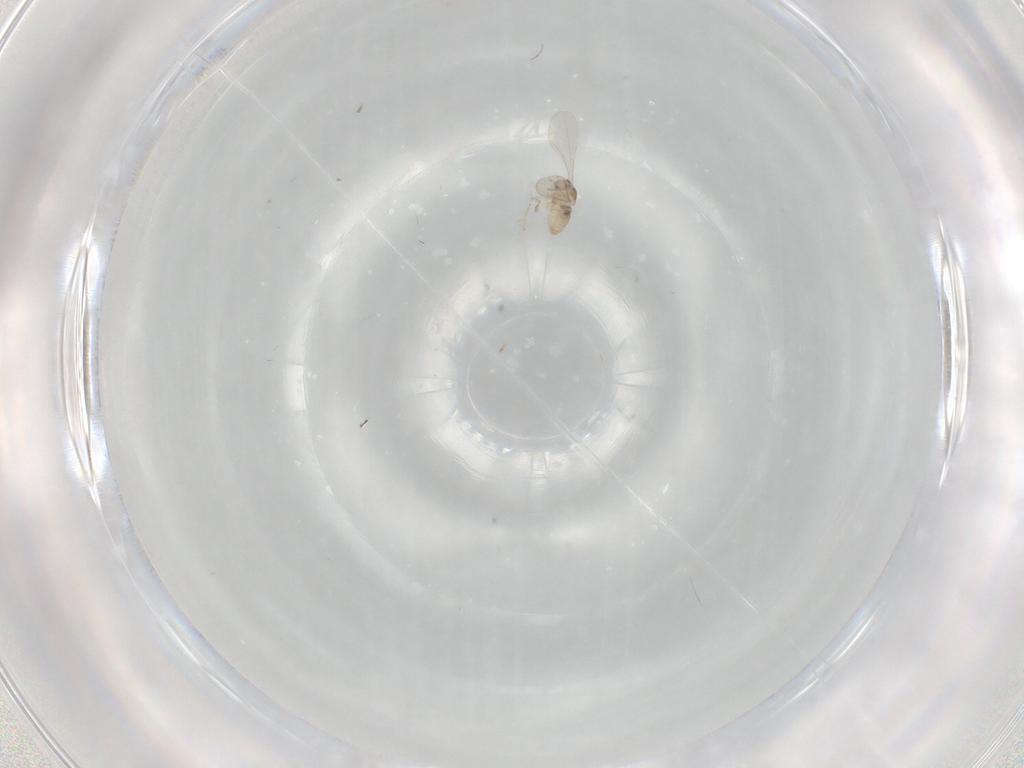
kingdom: Animalia
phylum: Arthropoda
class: Insecta
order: Diptera
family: Cecidomyiidae
